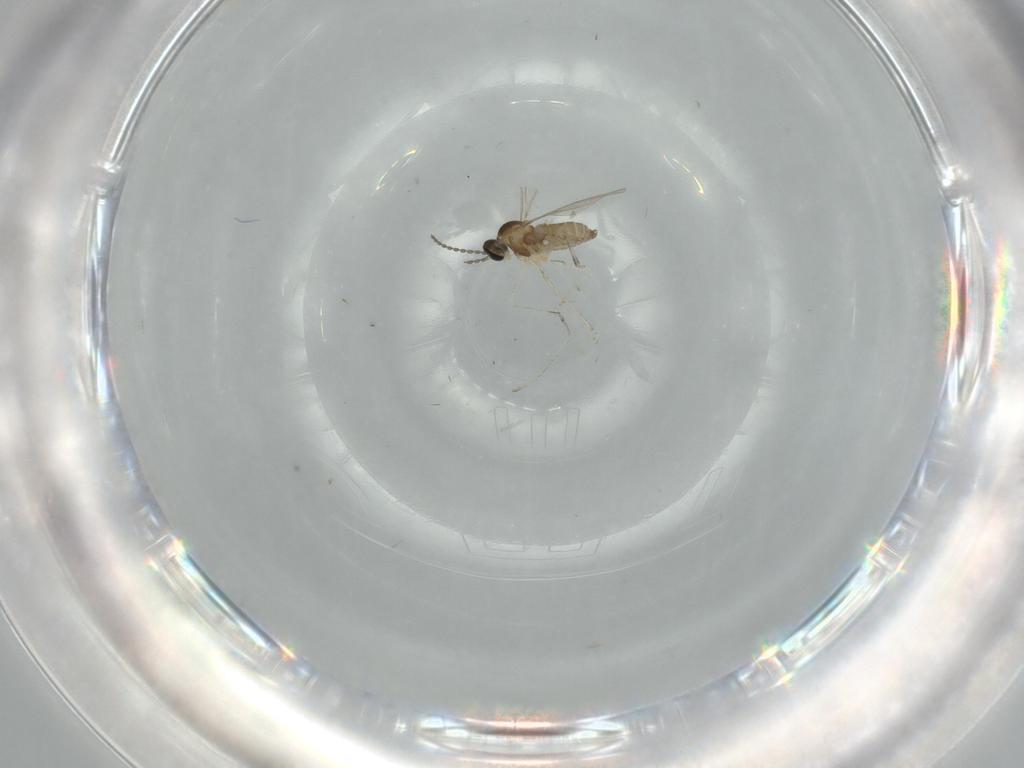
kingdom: Animalia
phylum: Arthropoda
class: Insecta
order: Diptera
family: Cecidomyiidae
